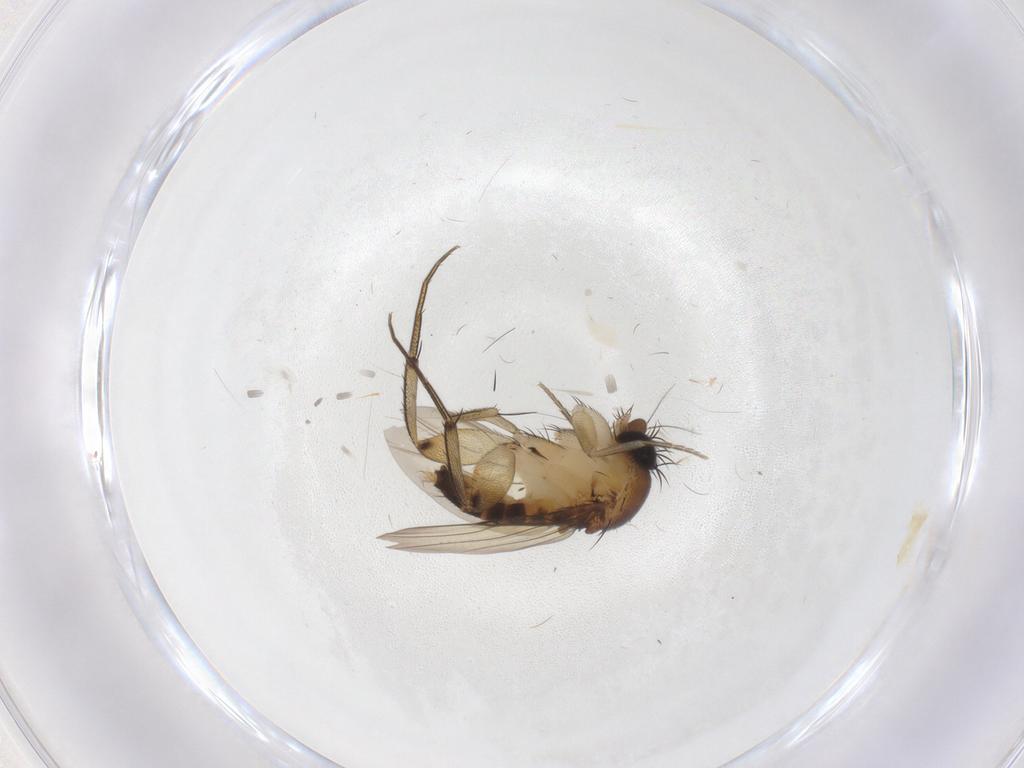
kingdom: Animalia
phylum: Arthropoda
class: Insecta
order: Diptera
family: Phoridae
